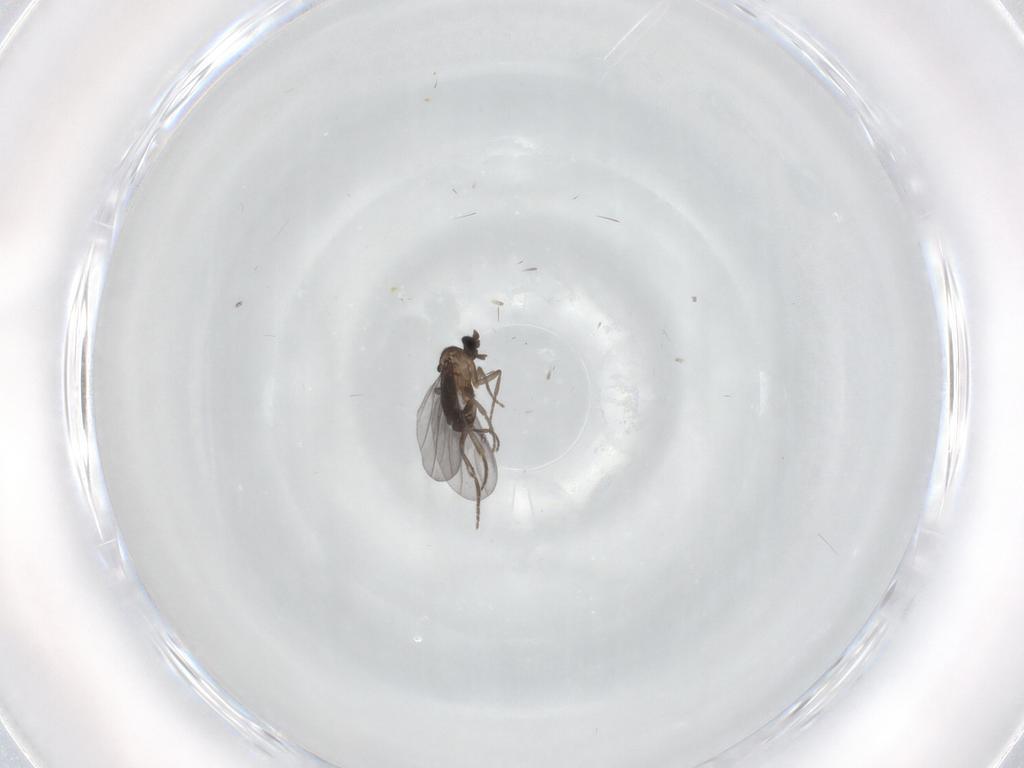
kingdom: Animalia
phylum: Arthropoda
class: Insecta
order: Diptera
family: Phoridae
